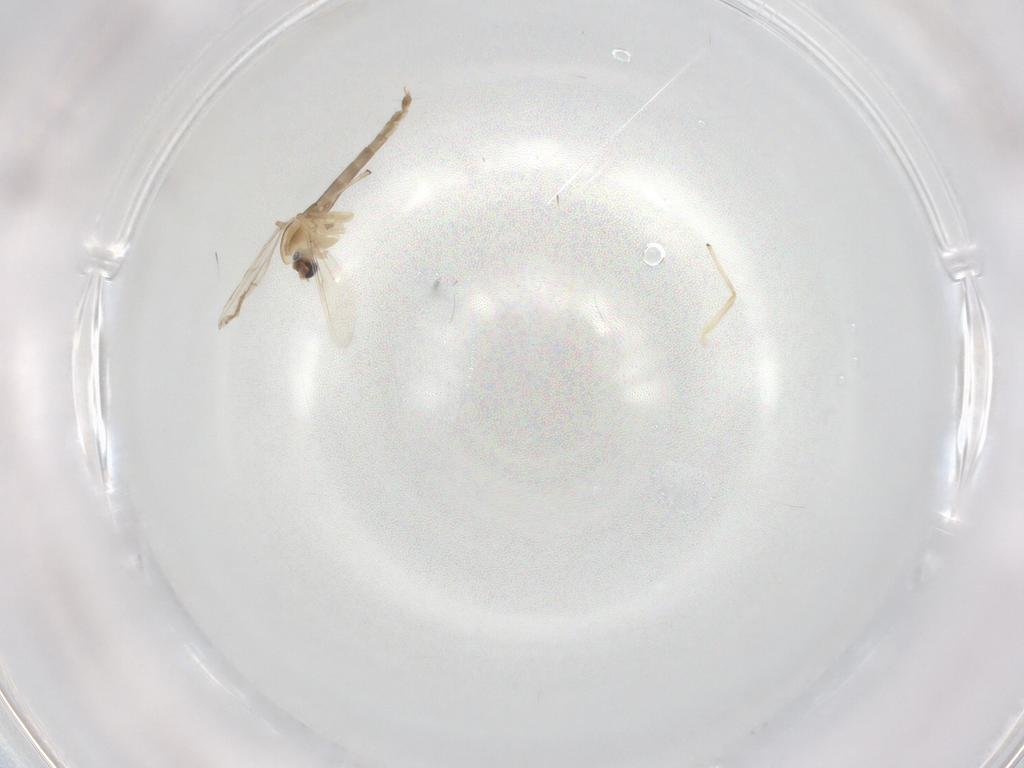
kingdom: Animalia
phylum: Arthropoda
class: Insecta
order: Diptera
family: Chironomidae
